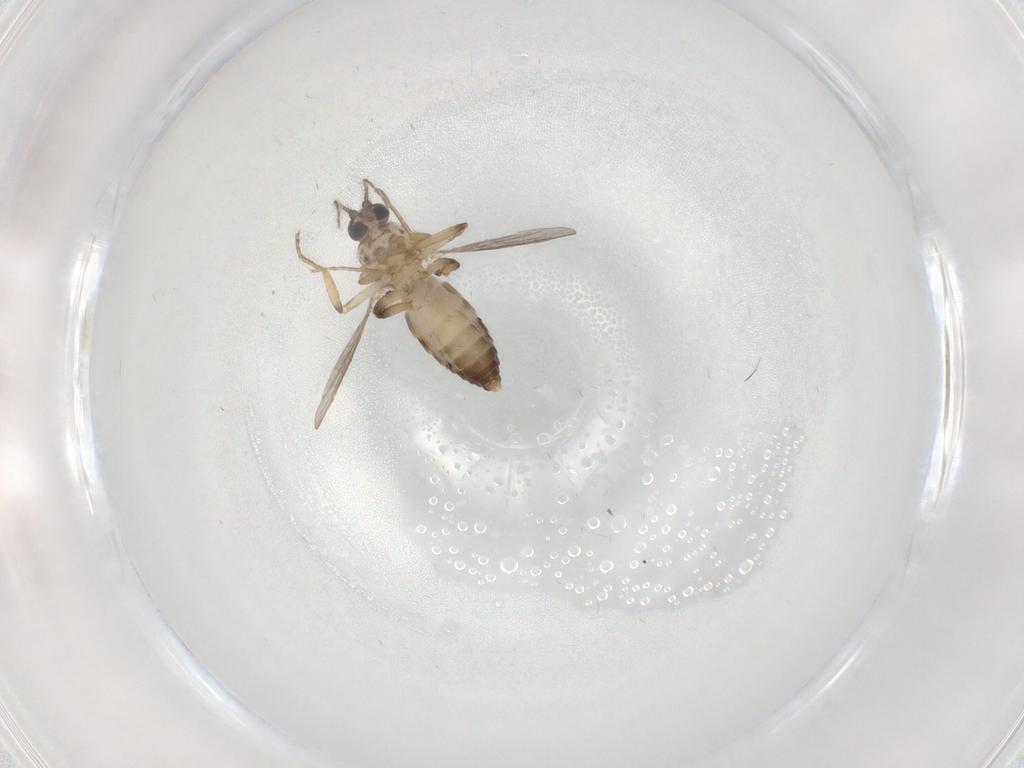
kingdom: Animalia
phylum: Arthropoda
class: Insecta
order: Diptera
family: Ceratopogonidae
